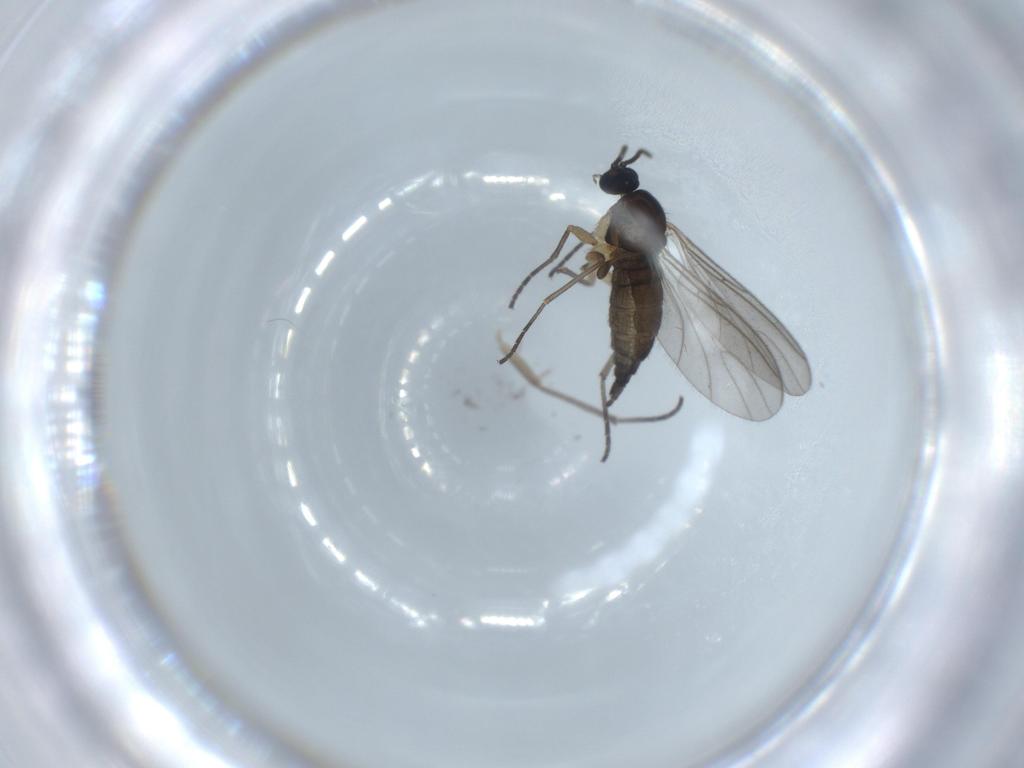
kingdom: Animalia
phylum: Arthropoda
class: Insecta
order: Diptera
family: Sciaridae
